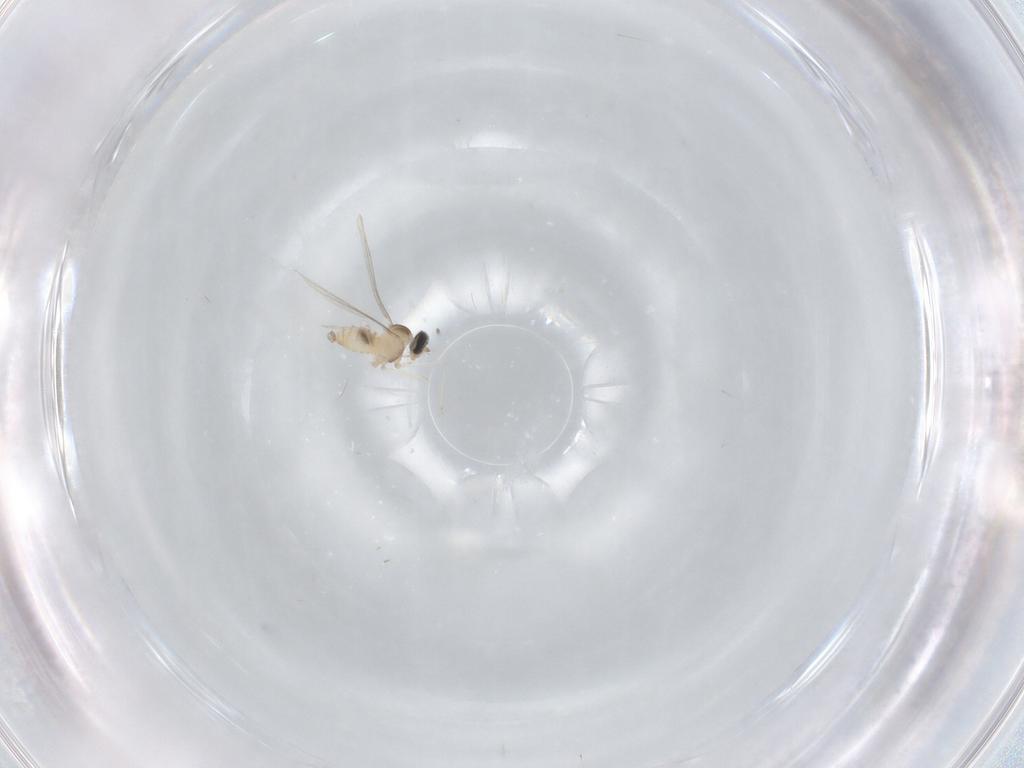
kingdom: Animalia
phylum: Arthropoda
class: Insecta
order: Diptera
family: Cecidomyiidae
